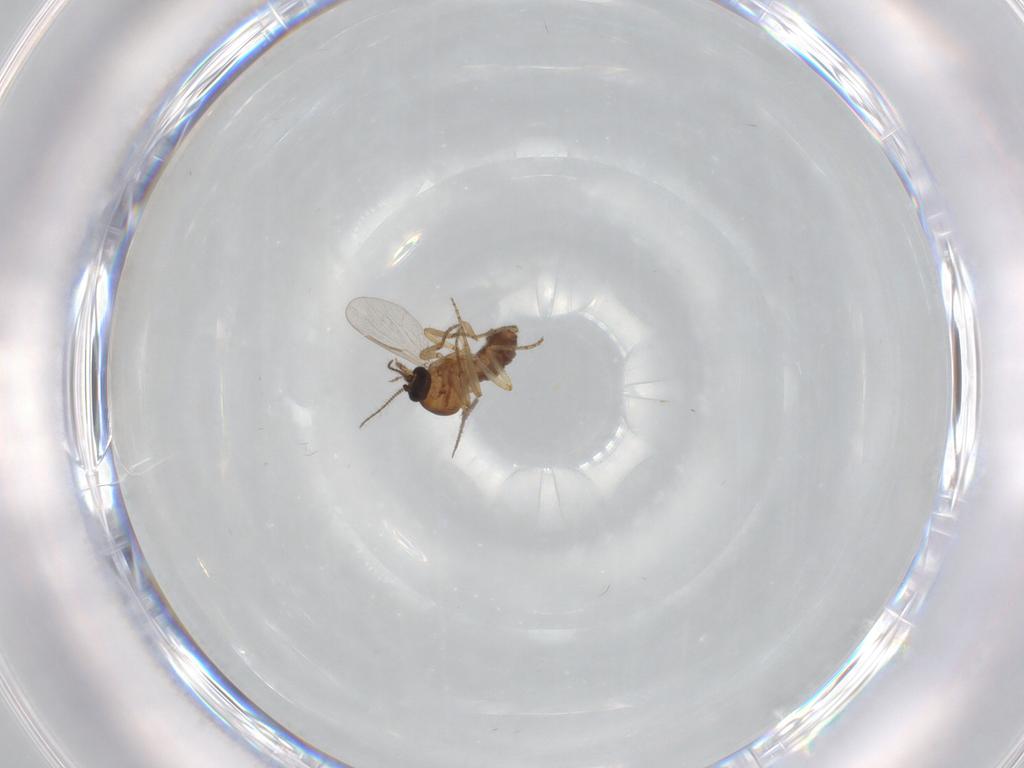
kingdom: Animalia
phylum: Arthropoda
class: Insecta
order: Diptera
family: Ceratopogonidae
